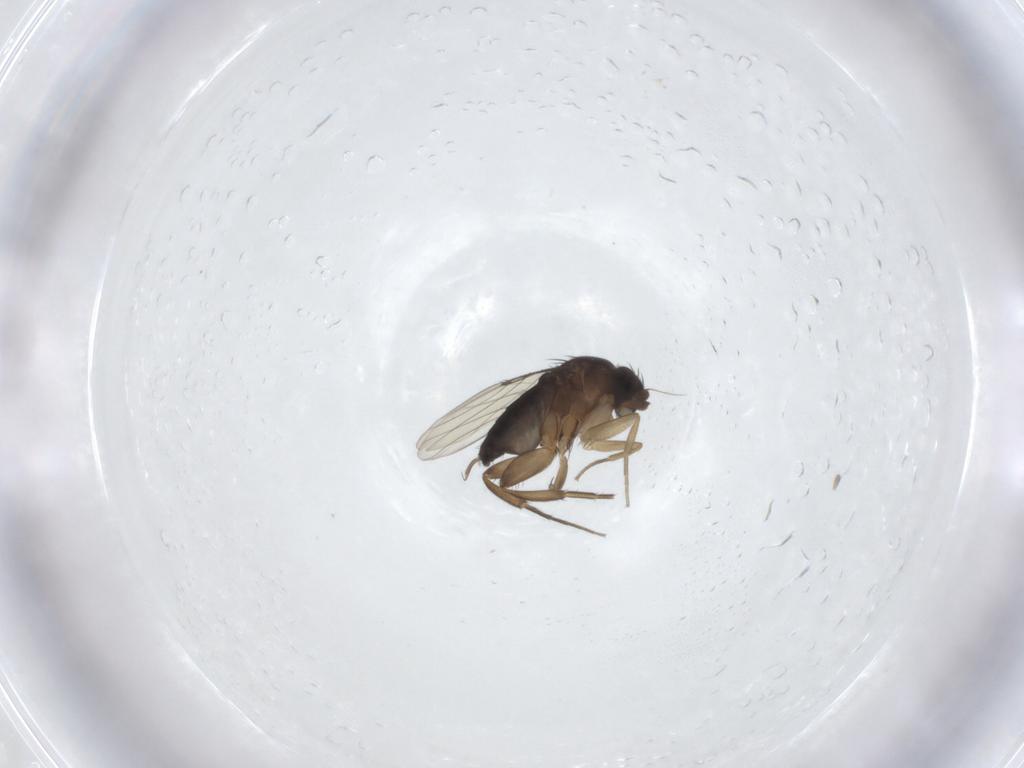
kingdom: Animalia
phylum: Arthropoda
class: Insecta
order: Diptera
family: Phoridae
